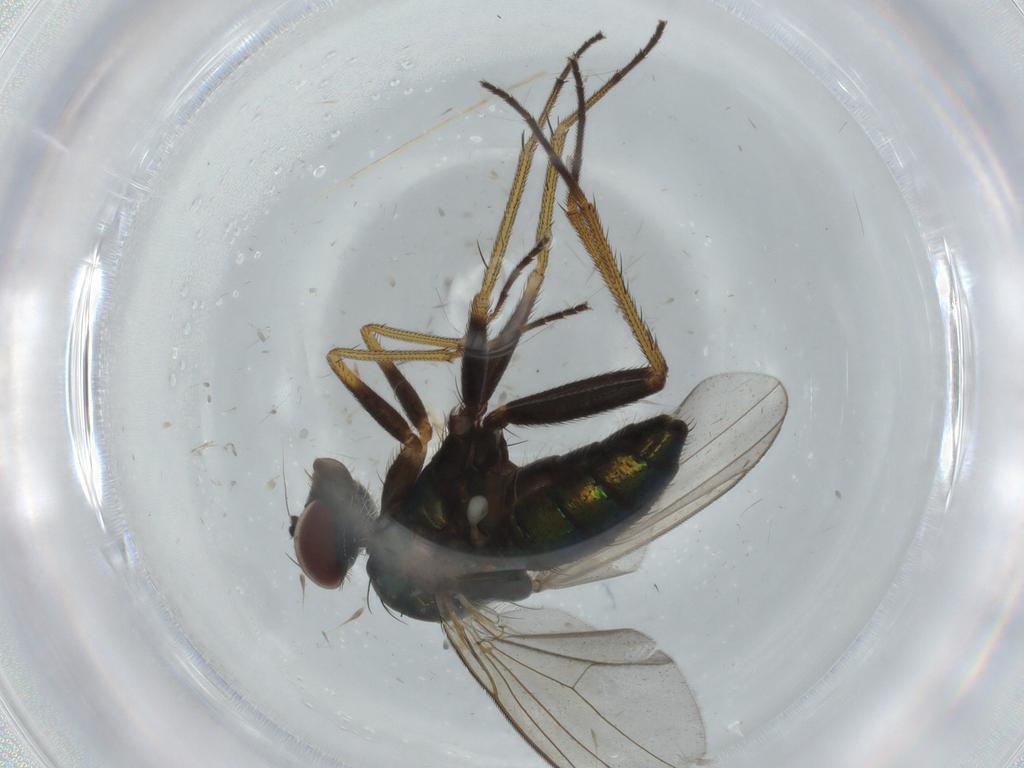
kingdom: Animalia
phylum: Arthropoda
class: Insecta
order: Diptera
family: Dolichopodidae
